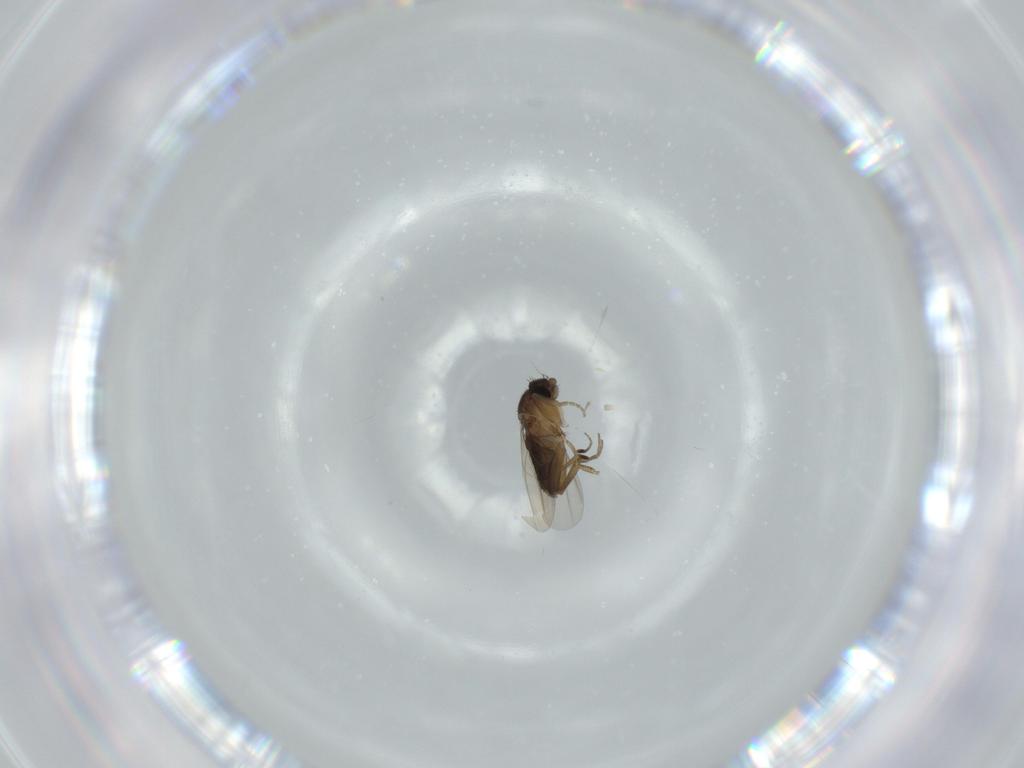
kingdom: Animalia
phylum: Arthropoda
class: Insecta
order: Diptera
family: Phoridae
